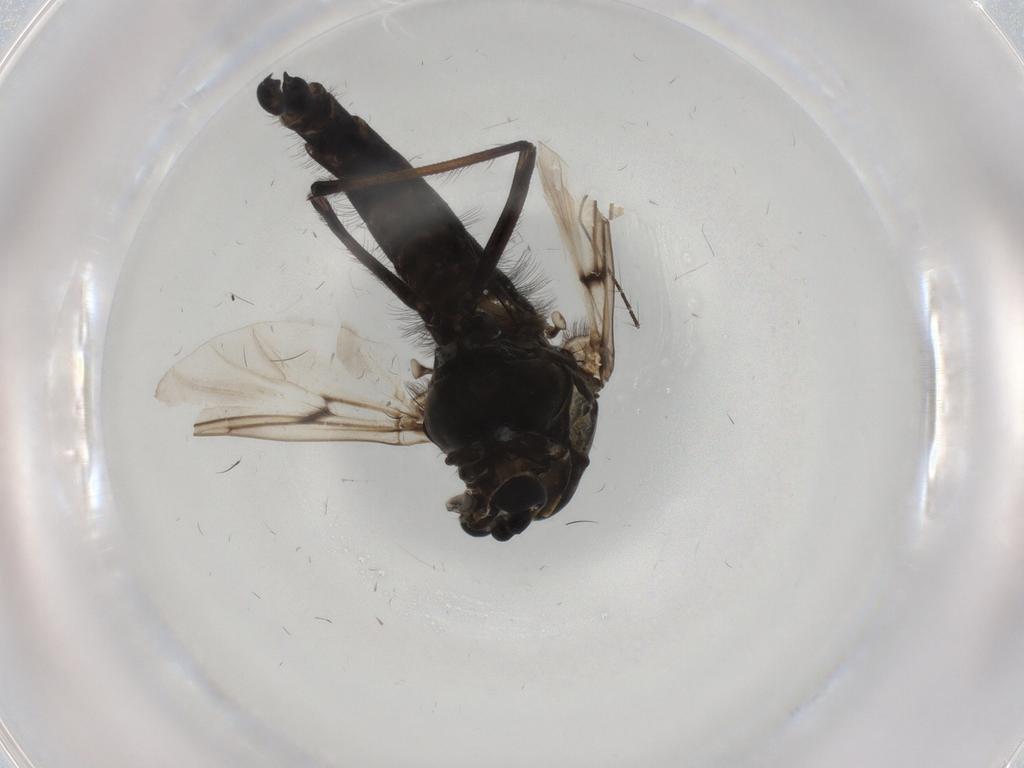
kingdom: Animalia
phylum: Arthropoda
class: Insecta
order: Diptera
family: Chironomidae
